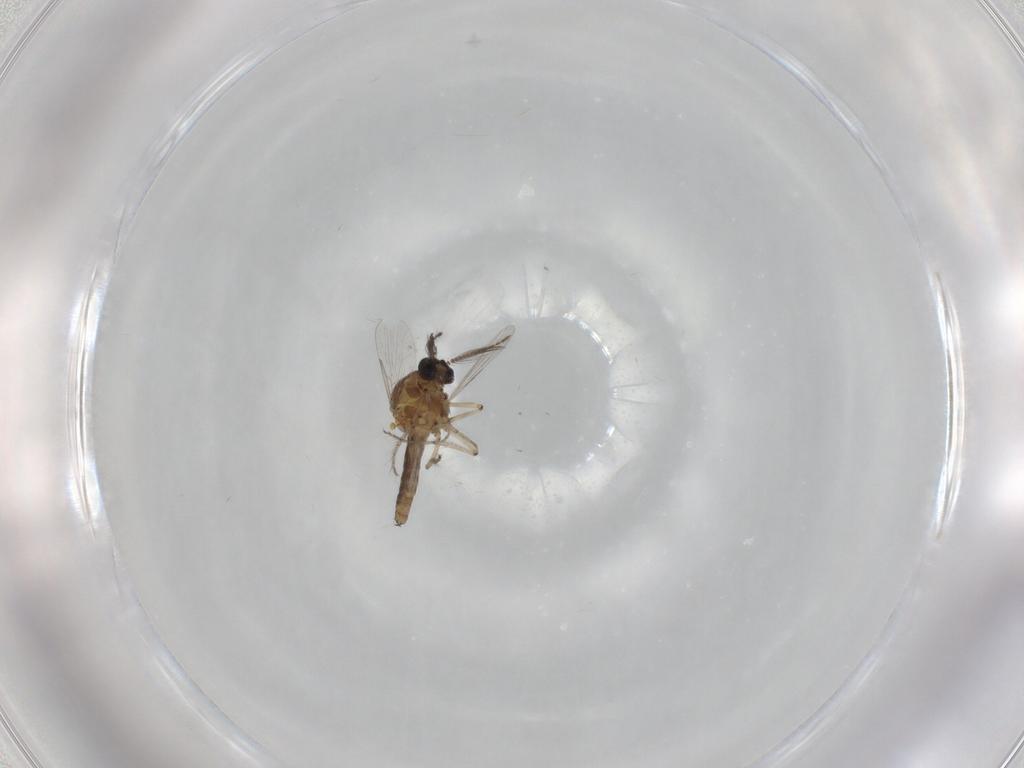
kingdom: Animalia
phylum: Arthropoda
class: Insecta
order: Diptera
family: Ceratopogonidae
